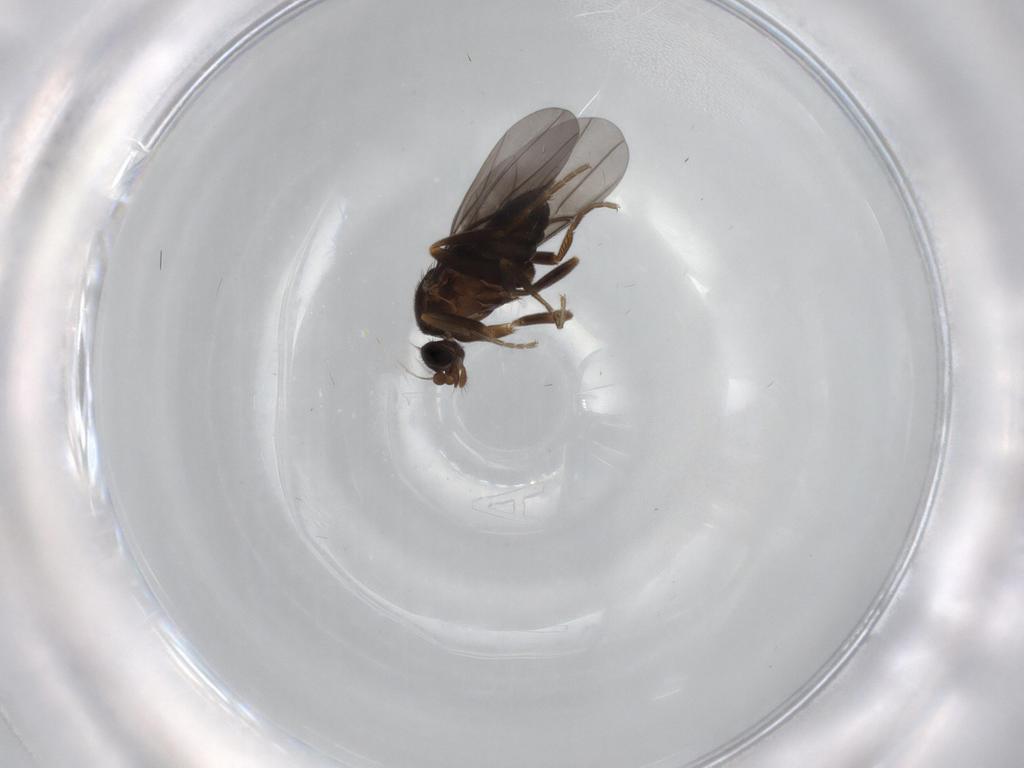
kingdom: Animalia
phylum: Arthropoda
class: Insecta
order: Diptera
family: Phoridae
